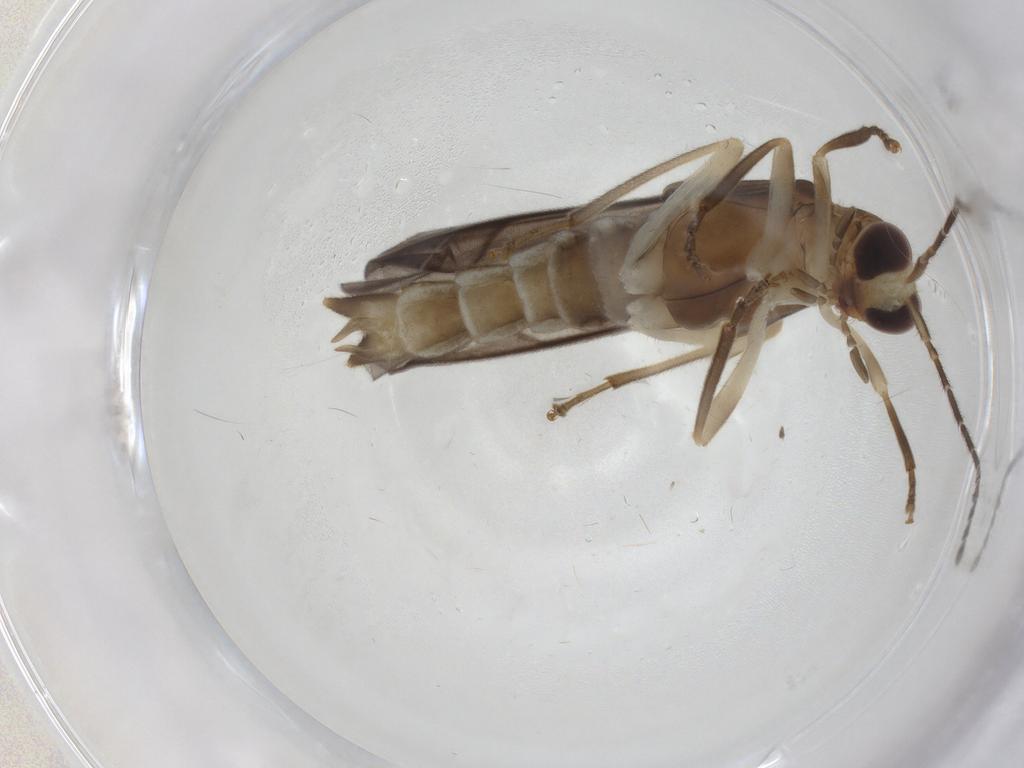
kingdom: Animalia
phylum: Arthropoda
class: Insecta
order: Coleoptera
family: Cantharidae
